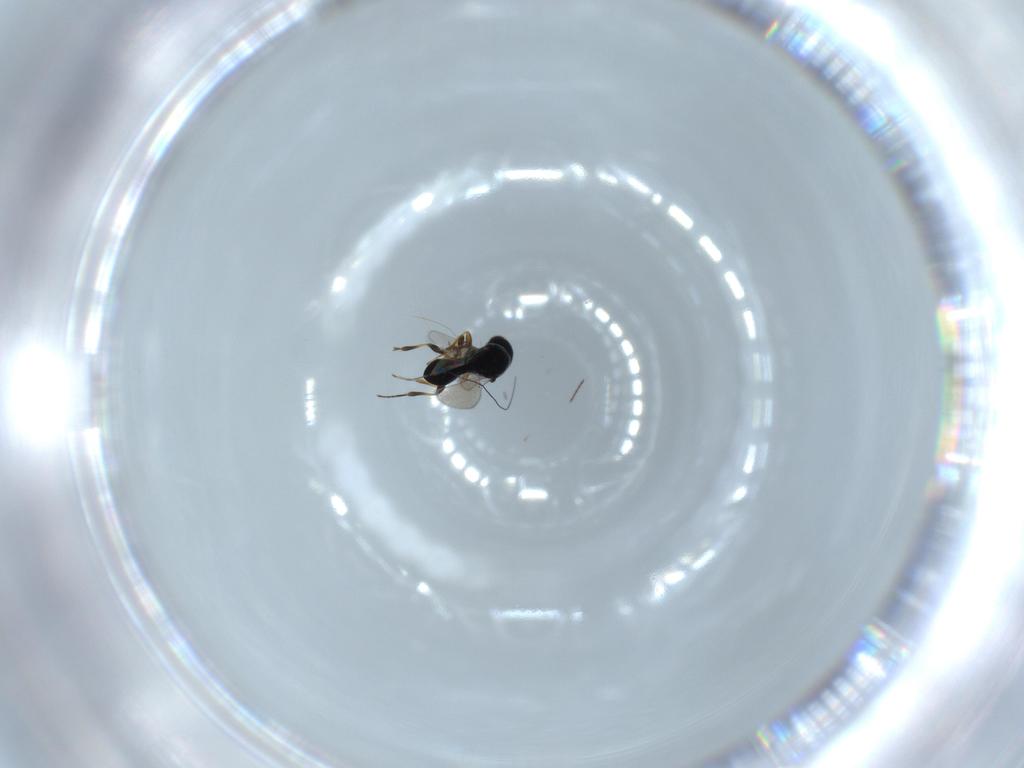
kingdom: Animalia
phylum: Arthropoda
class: Insecta
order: Hymenoptera
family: Platygastridae
